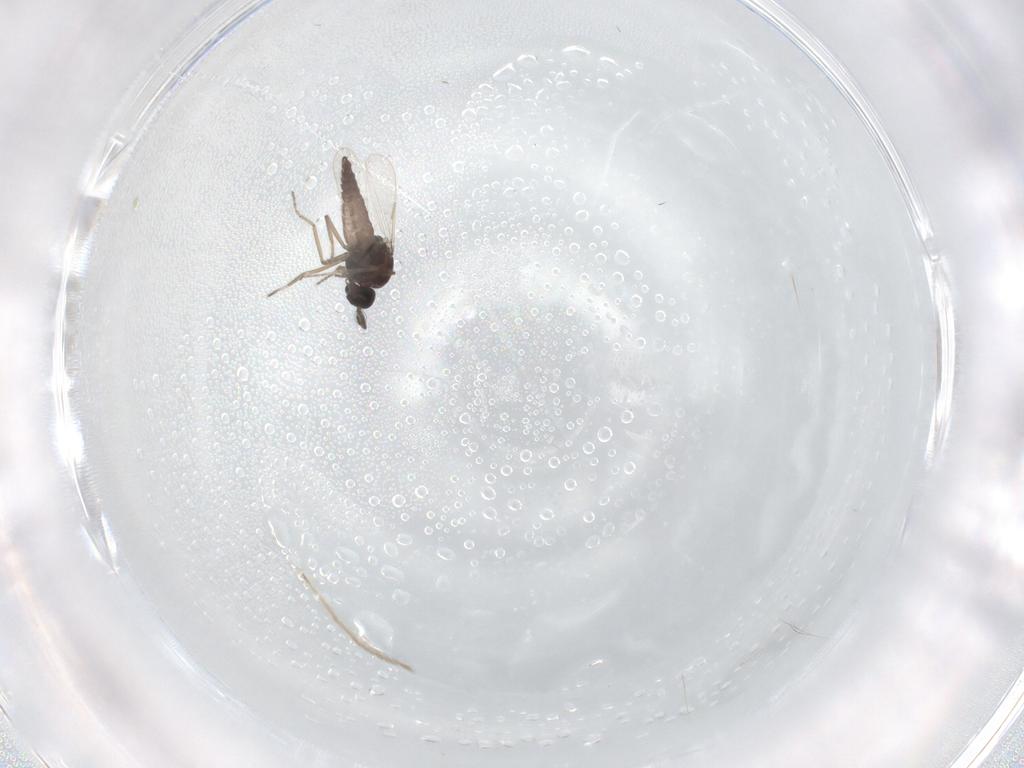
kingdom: Animalia
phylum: Arthropoda
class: Insecta
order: Diptera
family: Ceratopogonidae
